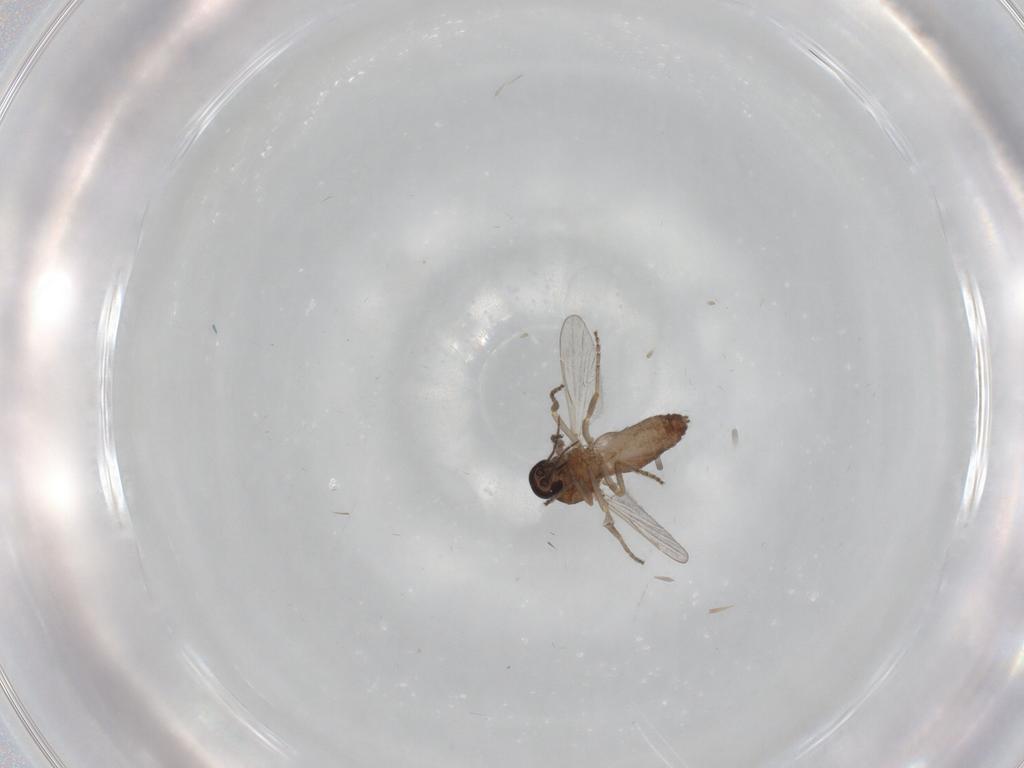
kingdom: Animalia
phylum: Arthropoda
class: Insecta
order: Diptera
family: Ceratopogonidae
